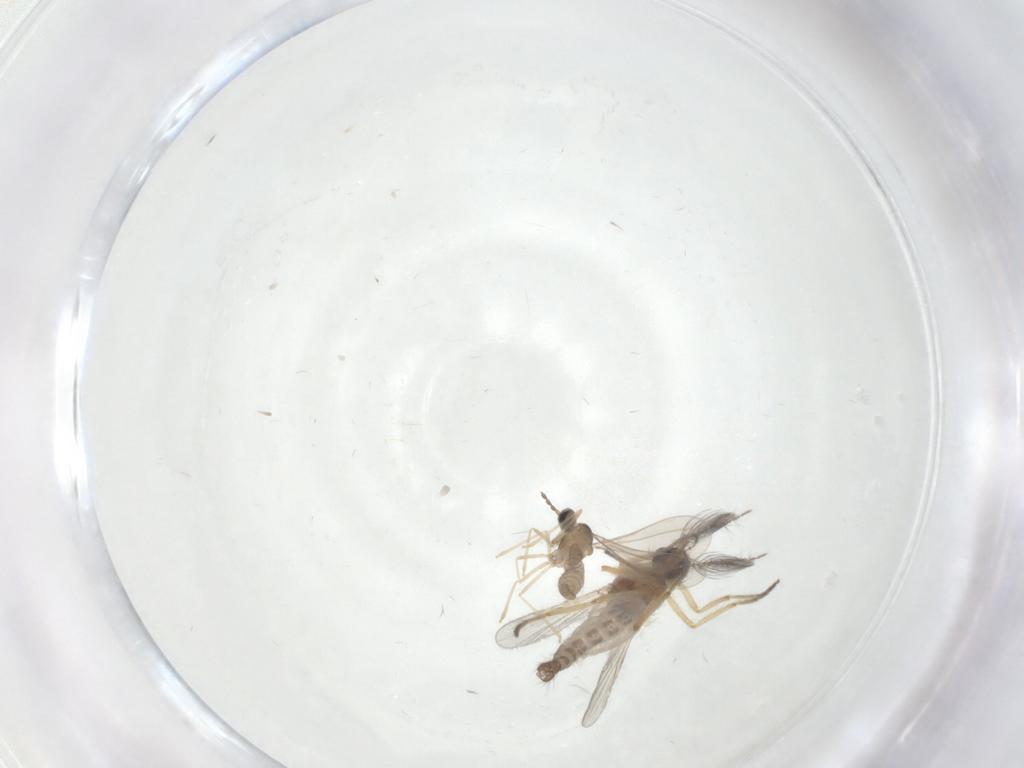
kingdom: Animalia
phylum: Arthropoda
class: Insecta
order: Diptera
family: Ceratopogonidae
